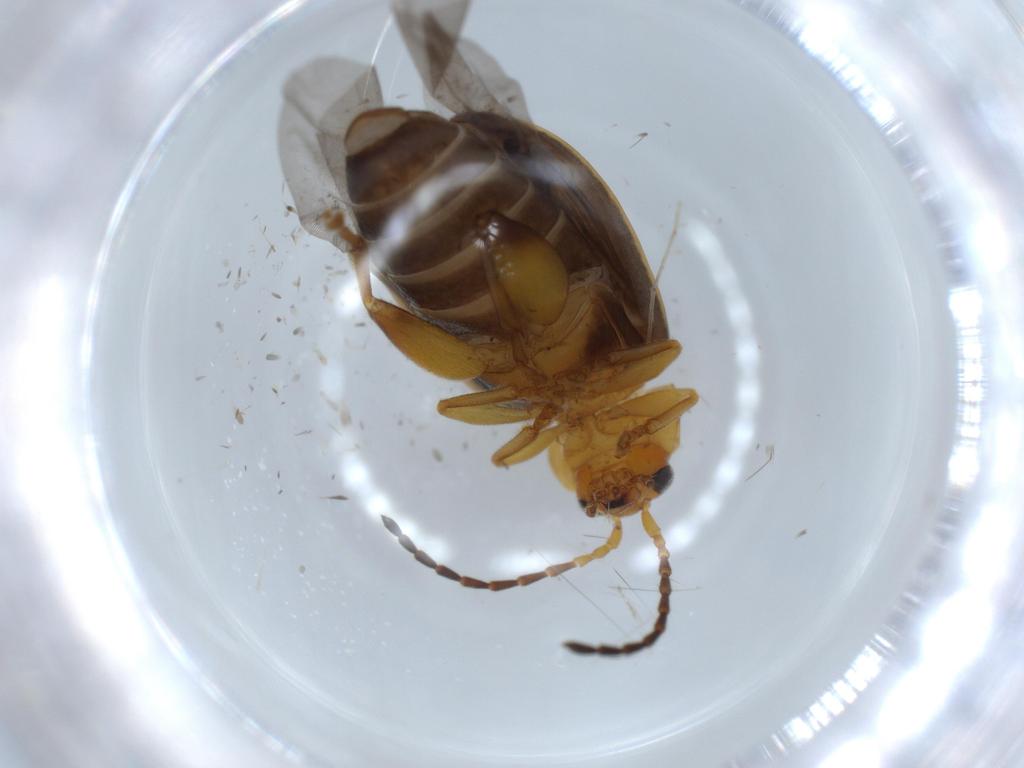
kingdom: Animalia
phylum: Arthropoda
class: Insecta
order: Coleoptera
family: Chrysomelidae
